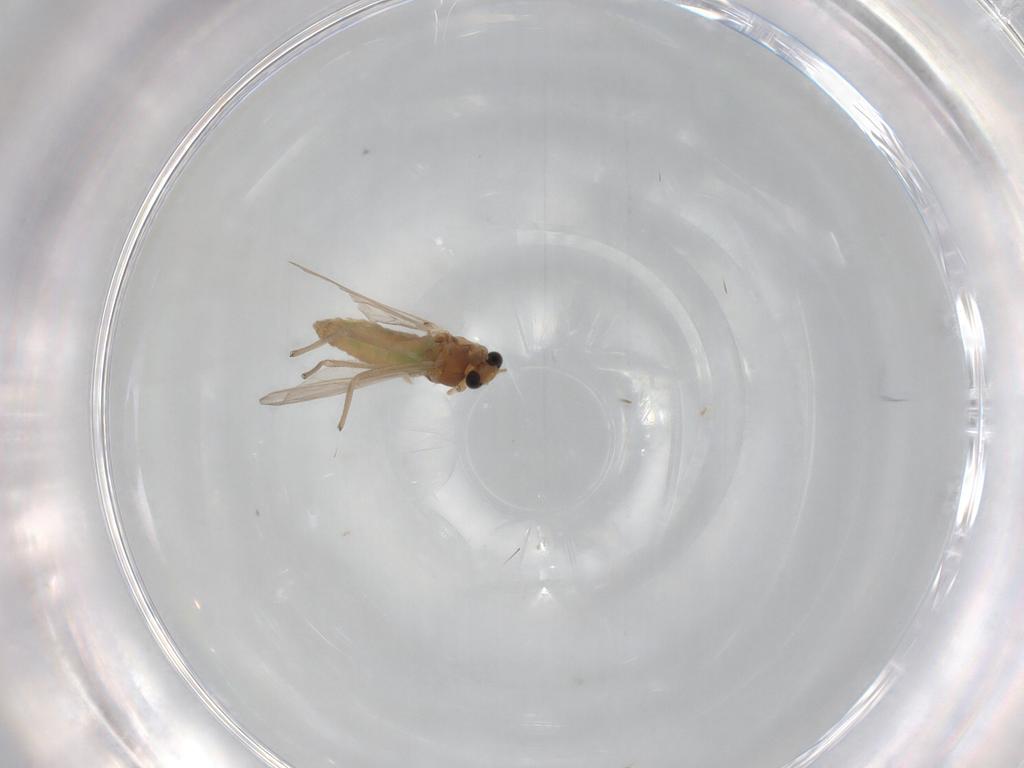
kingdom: Animalia
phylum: Arthropoda
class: Insecta
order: Diptera
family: Chironomidae
